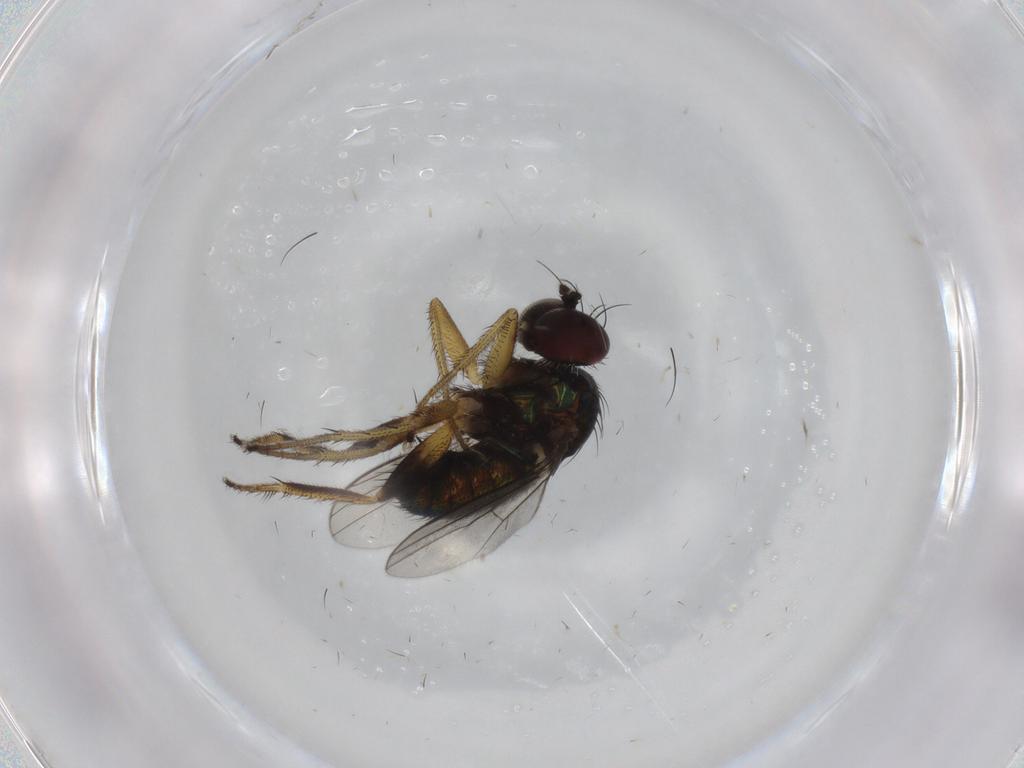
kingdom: Animalia
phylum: Arthropoda
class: Insecta
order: Diptera
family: Dolichopodidae
